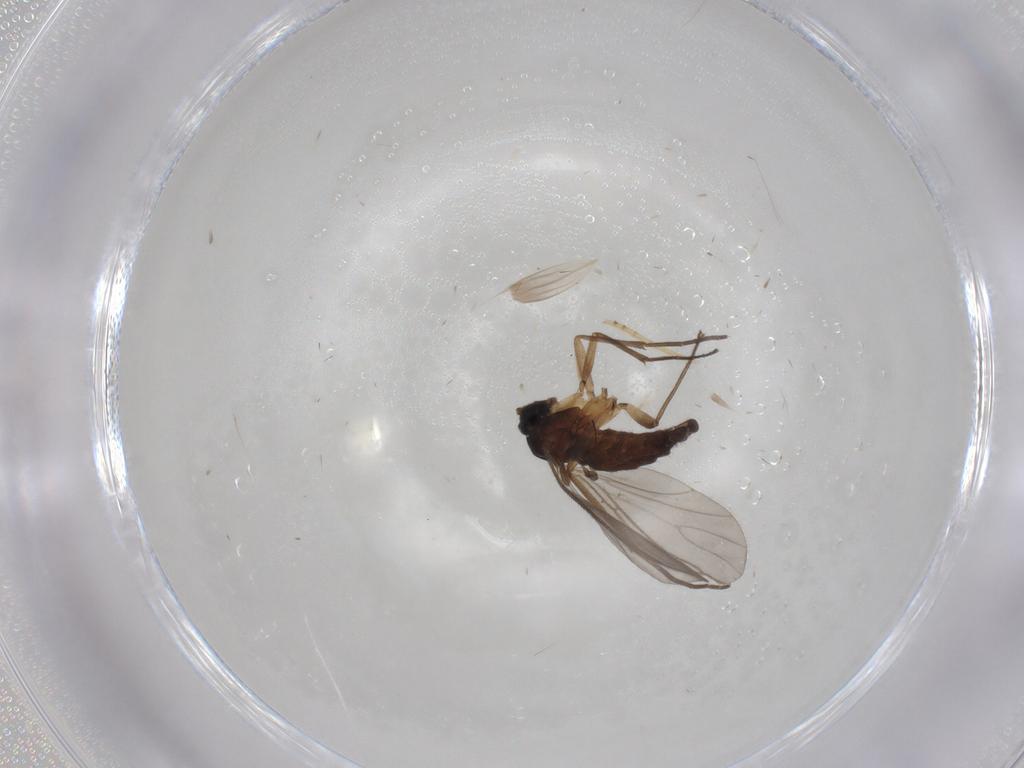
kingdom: Animalia
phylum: Arthropoda
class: Insecta
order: Diptera
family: Sciaridae
